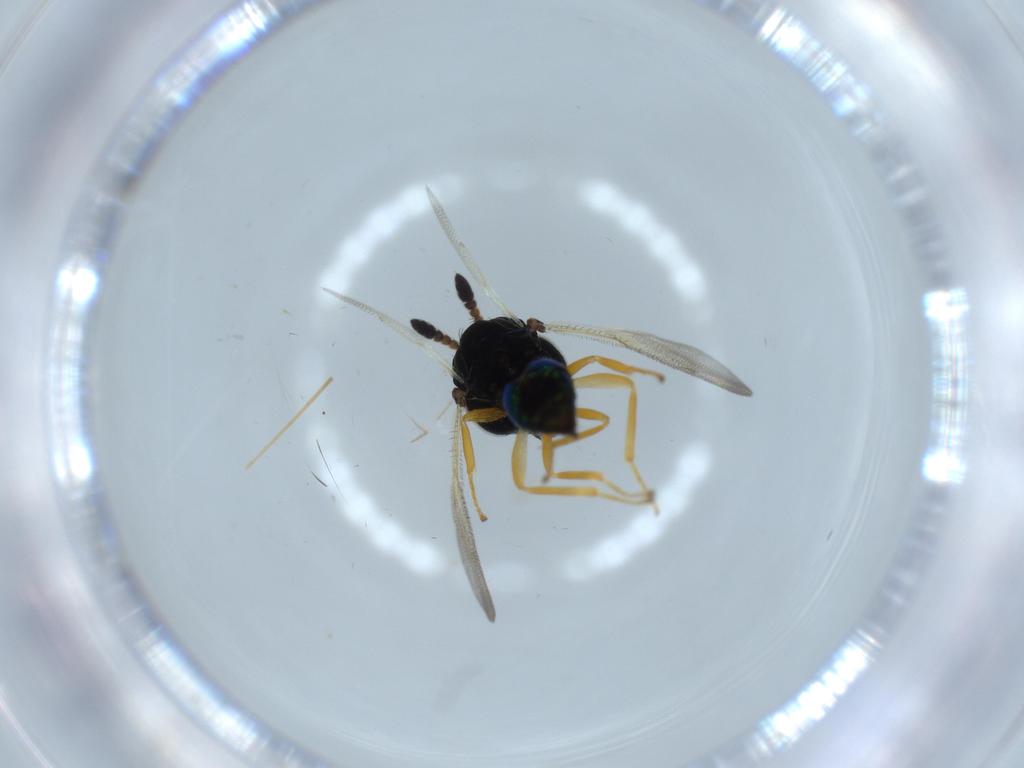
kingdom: Animalia
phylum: Arthropoda
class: Insecta
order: Hymenoptera
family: Pteromalidae
